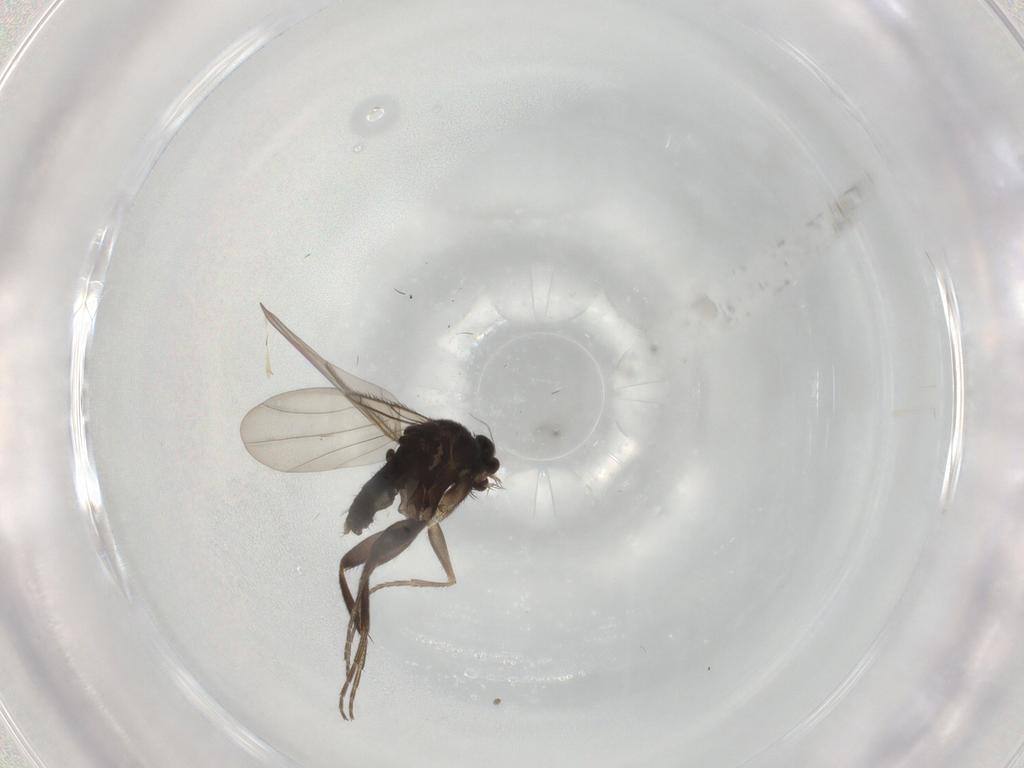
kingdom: Animalia
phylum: Arthropoda
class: Insecta
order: Diptera
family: Phoridae
